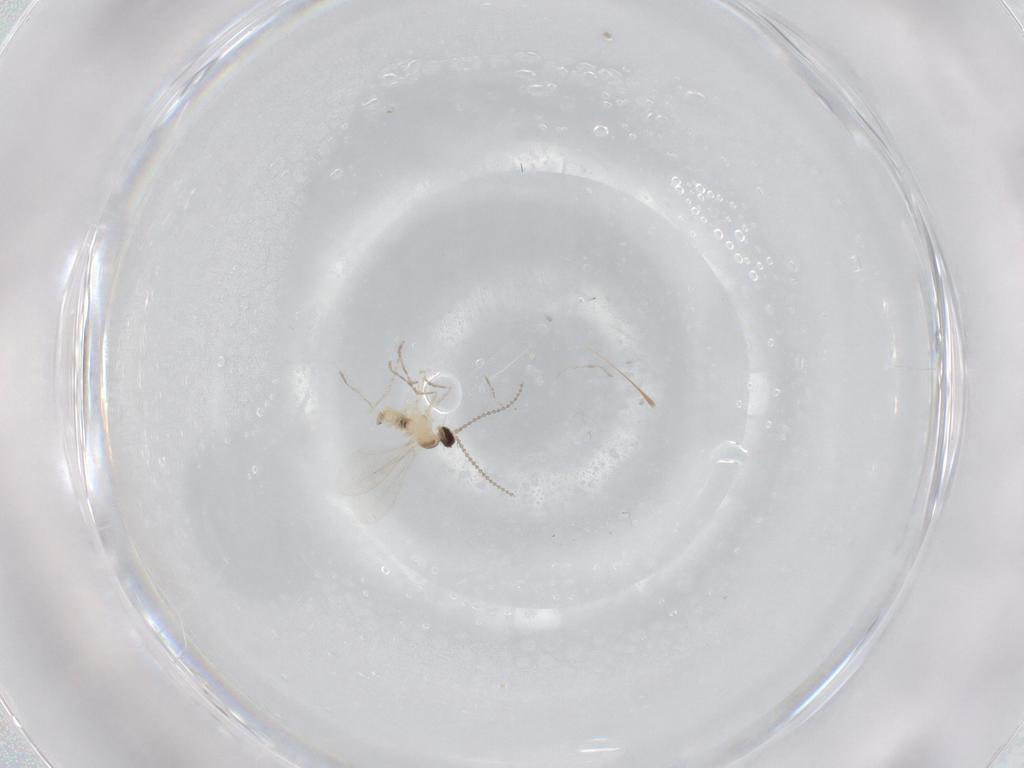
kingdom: Animalia
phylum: Arthropoda
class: Insecta
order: Diptera
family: Cecidomyiidae
